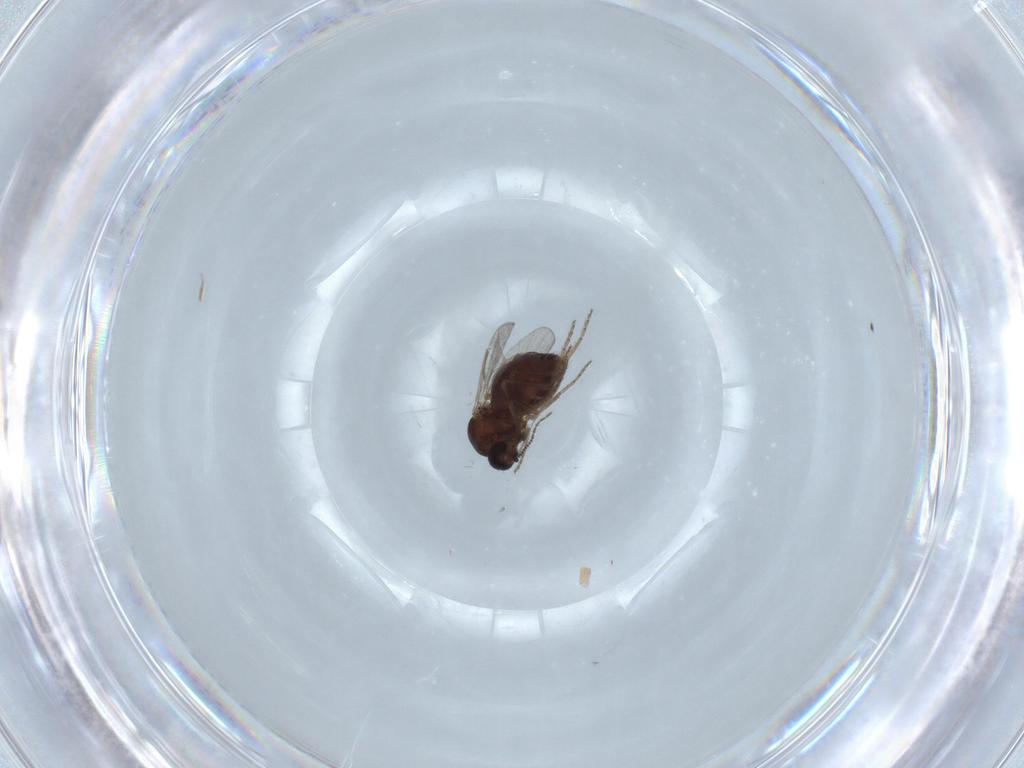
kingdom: Animalia
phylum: Arthropoda
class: Insecta
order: Diptera
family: Ceratopogonidae
